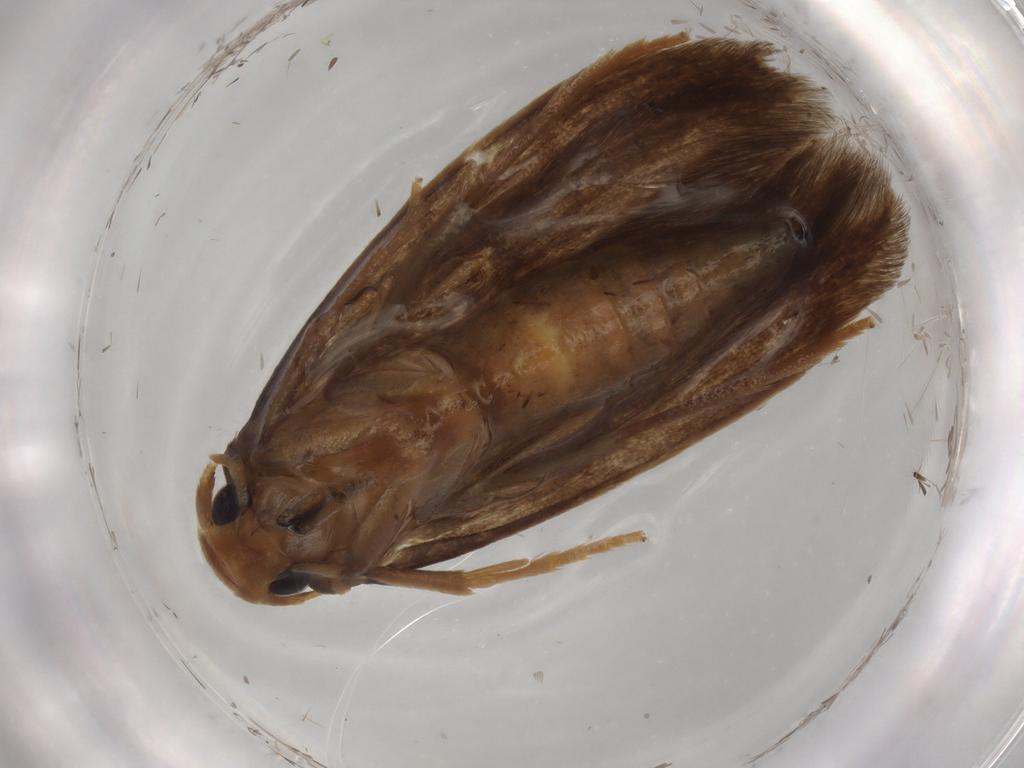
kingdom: Animalia
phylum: Arthropoda
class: Insecta
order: Lepidoptera
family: Tineidae
